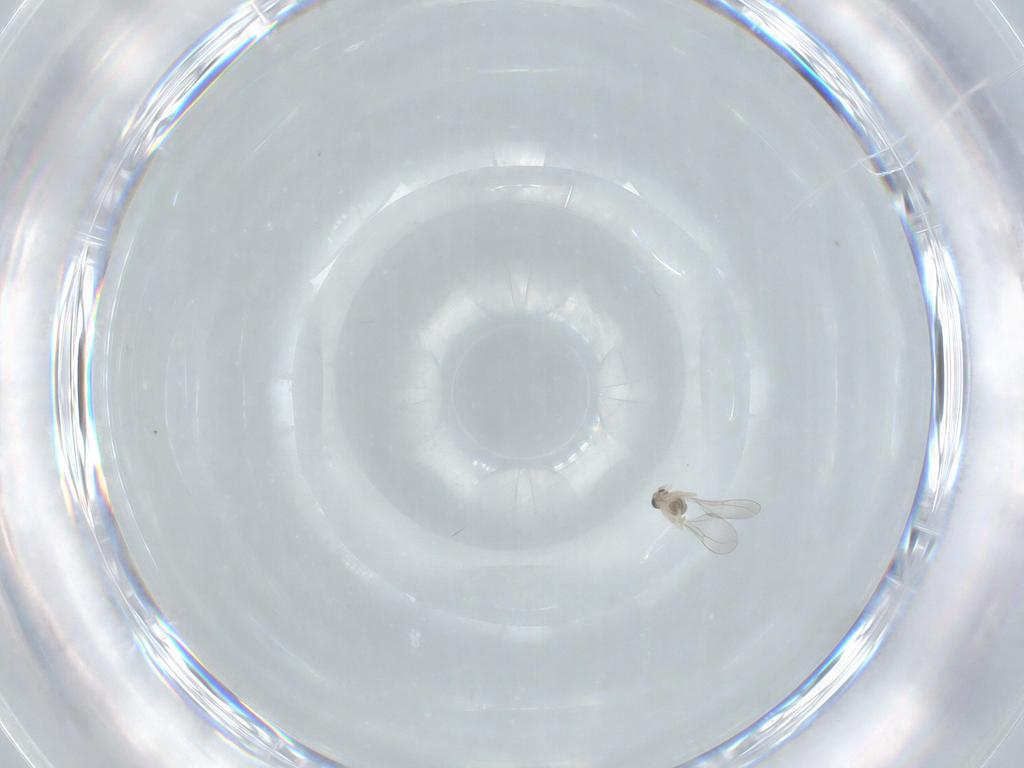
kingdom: Animalia
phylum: Arthropoda
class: Insecta
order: Diptera
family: Cecidomyiidae
